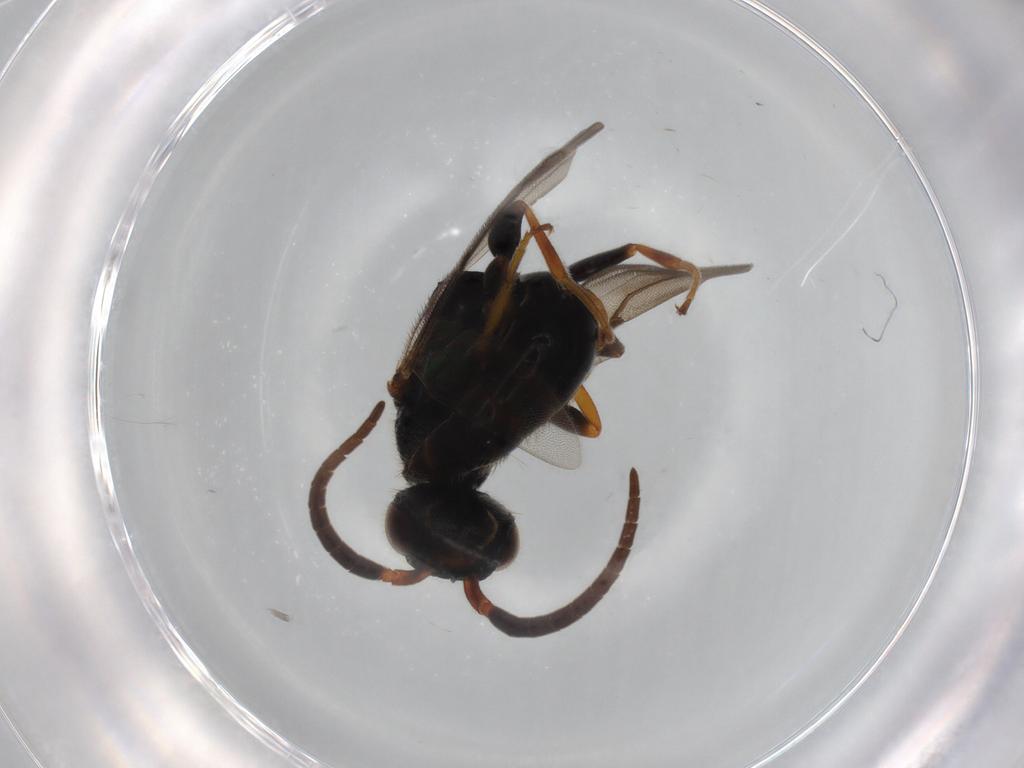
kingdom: Animalia
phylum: Arthropoda
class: Insecta
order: Hymenoptera
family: Bethylidae
